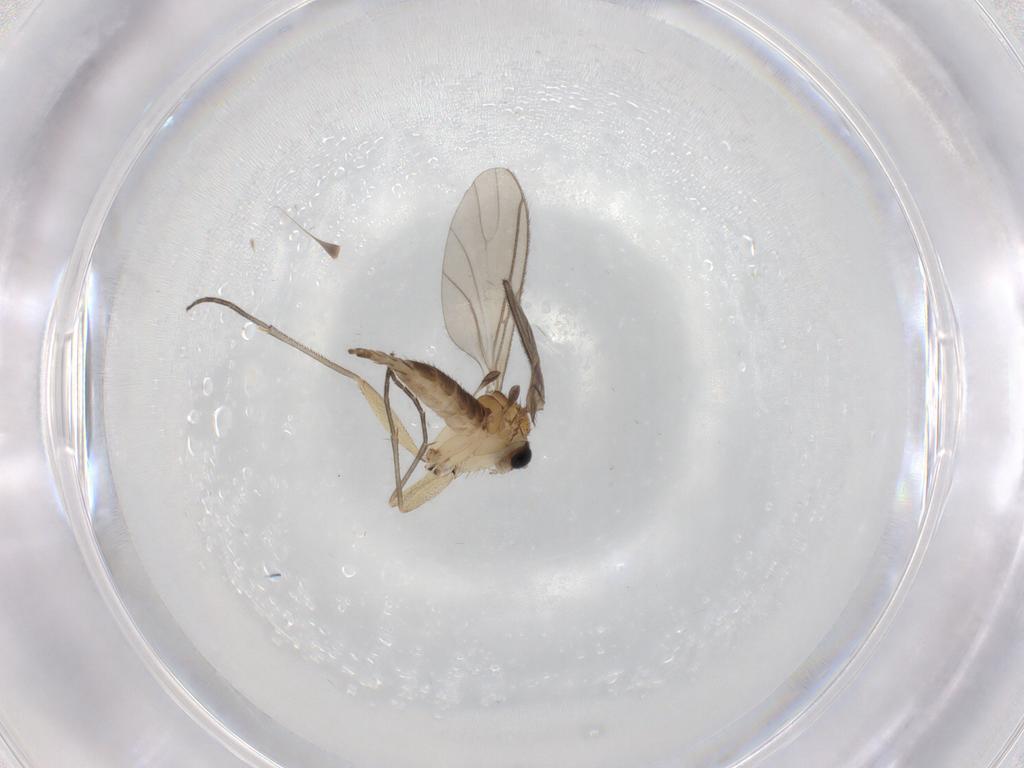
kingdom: Animalia
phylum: Arthropoda
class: Insecta
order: Diptera
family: Sciaridae
